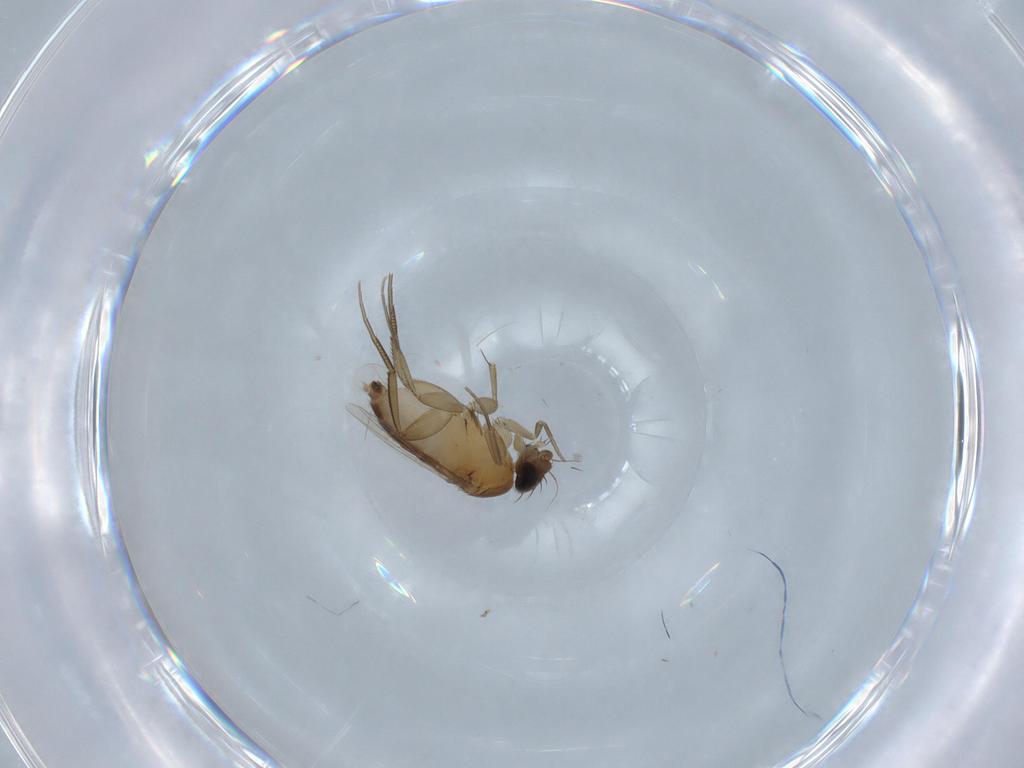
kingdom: Animalia
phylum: Arthropoda
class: Insecta
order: Diptera
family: Phoridae
